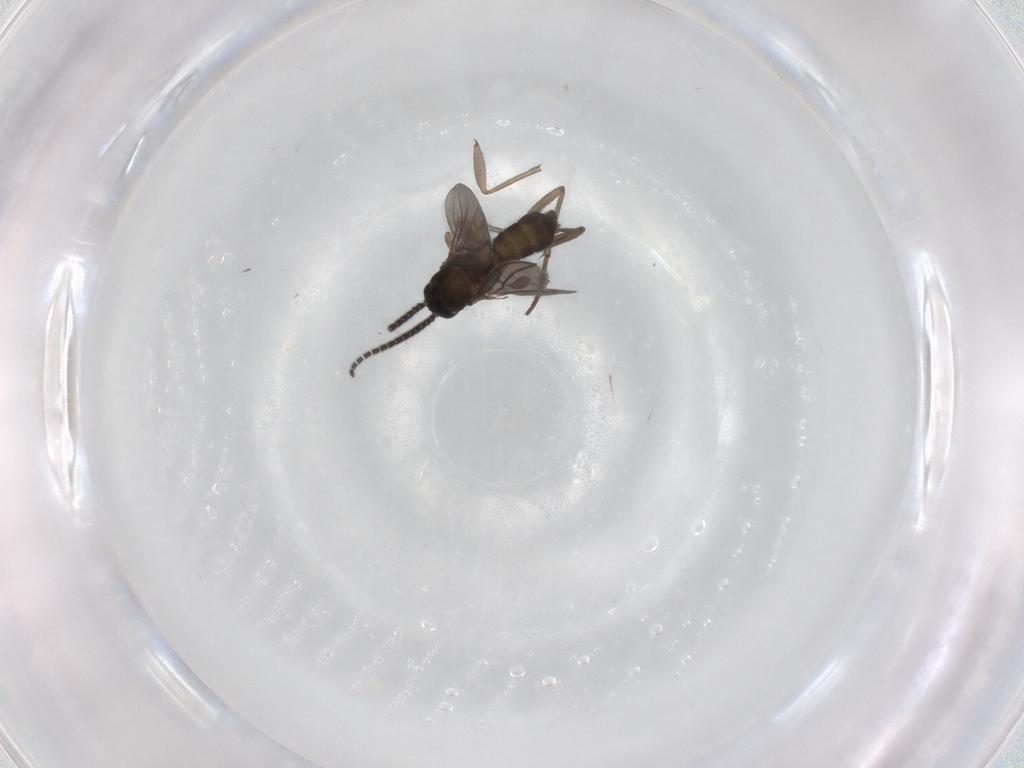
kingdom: Animalia
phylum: Arthropoda
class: Insecta
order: Diptera
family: Sciaridae
